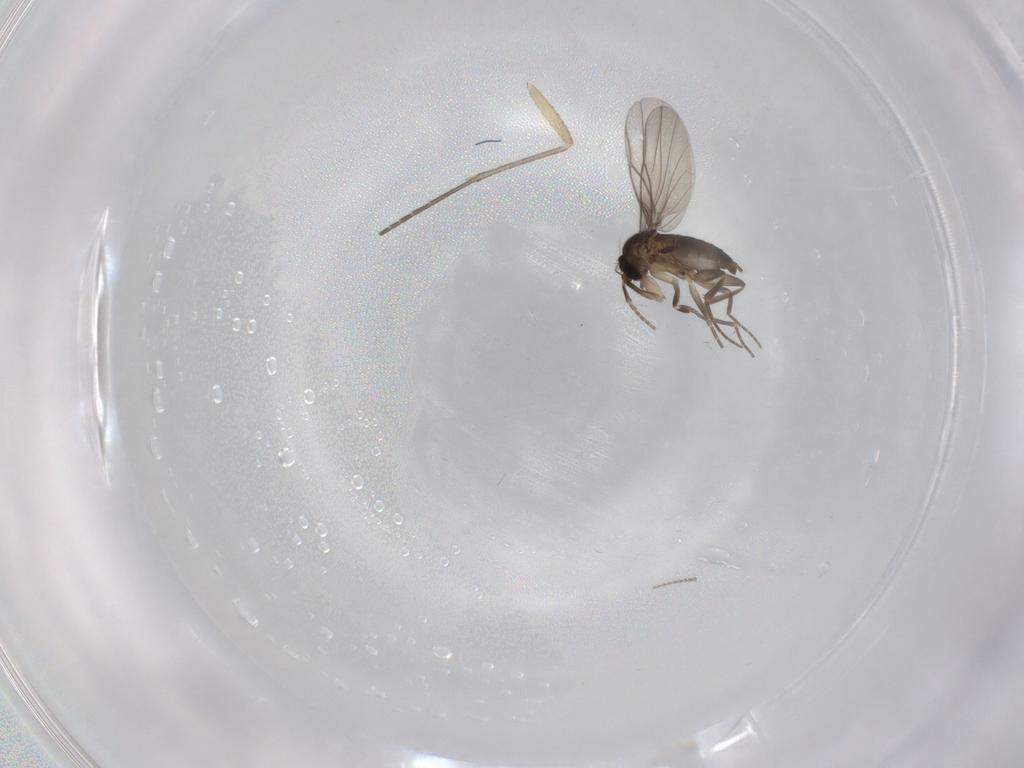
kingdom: Animalia
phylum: Arthropoda
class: Insecta
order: Diptera
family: Sciaridae
